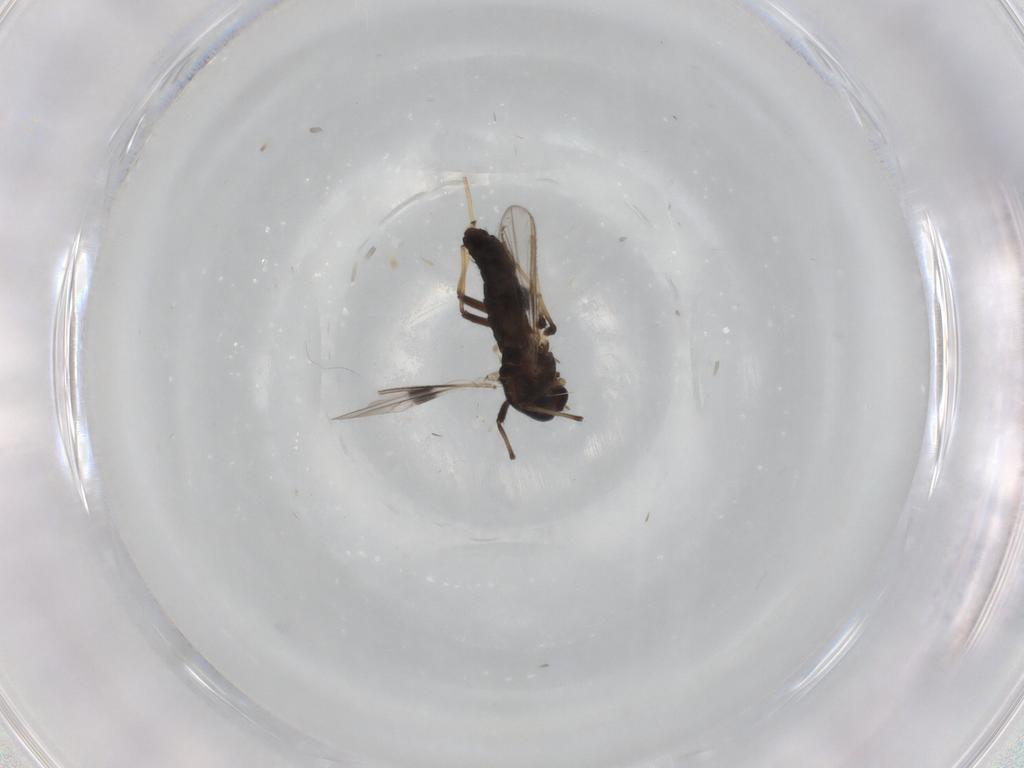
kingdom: Animalia
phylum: Arthropoda
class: Insecta
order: Diptera
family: Chironomidae
